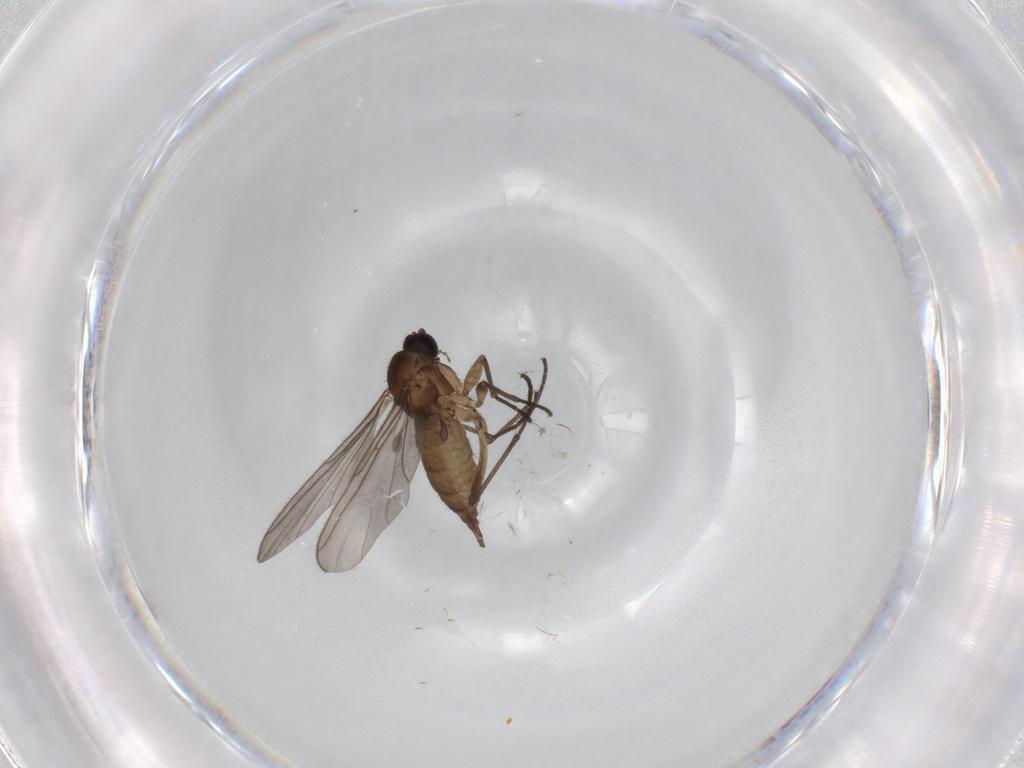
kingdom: Animalia
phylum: Arthropoda
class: Insecta
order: Diptera
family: Sciaridae
